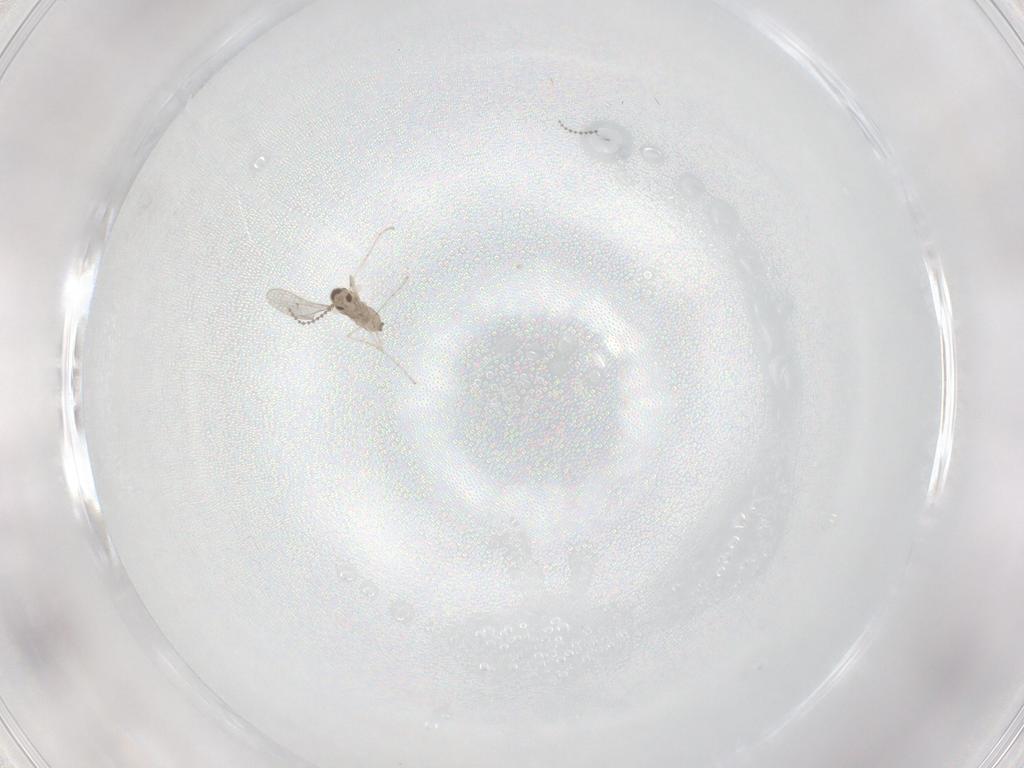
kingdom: Animalia
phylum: Arthropoda
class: Insecta
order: Diptera
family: Cecidomyiidae
